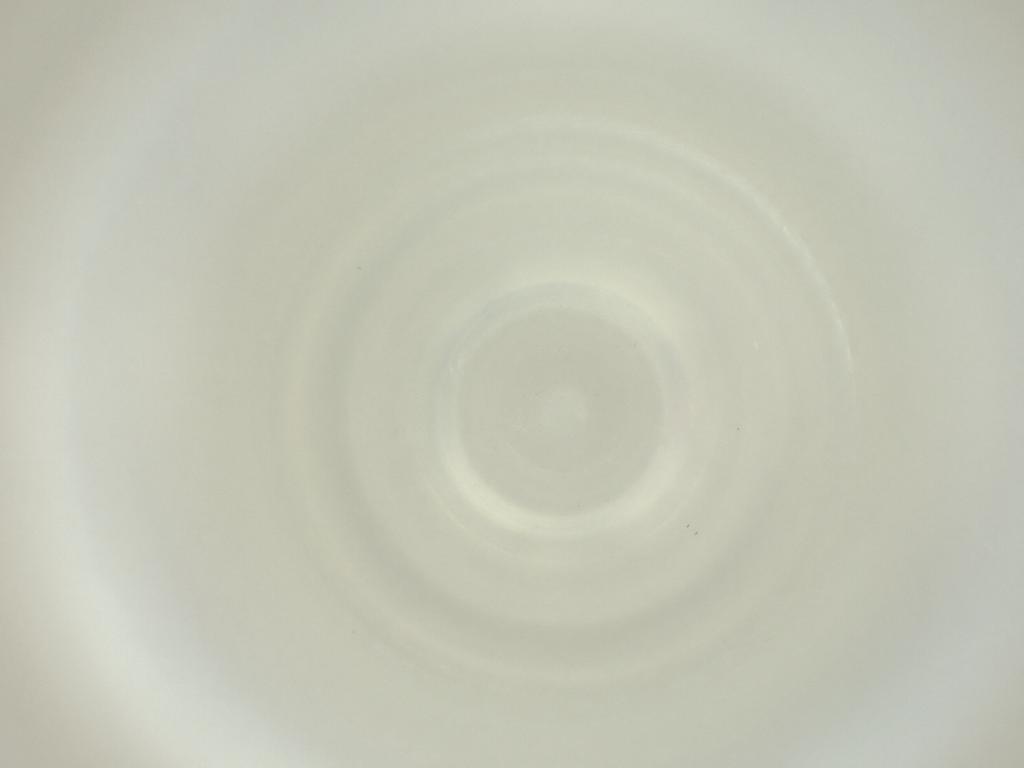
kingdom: Animalia
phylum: Arthropoda
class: Insecta
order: Diptera
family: Cecidomyiidae
